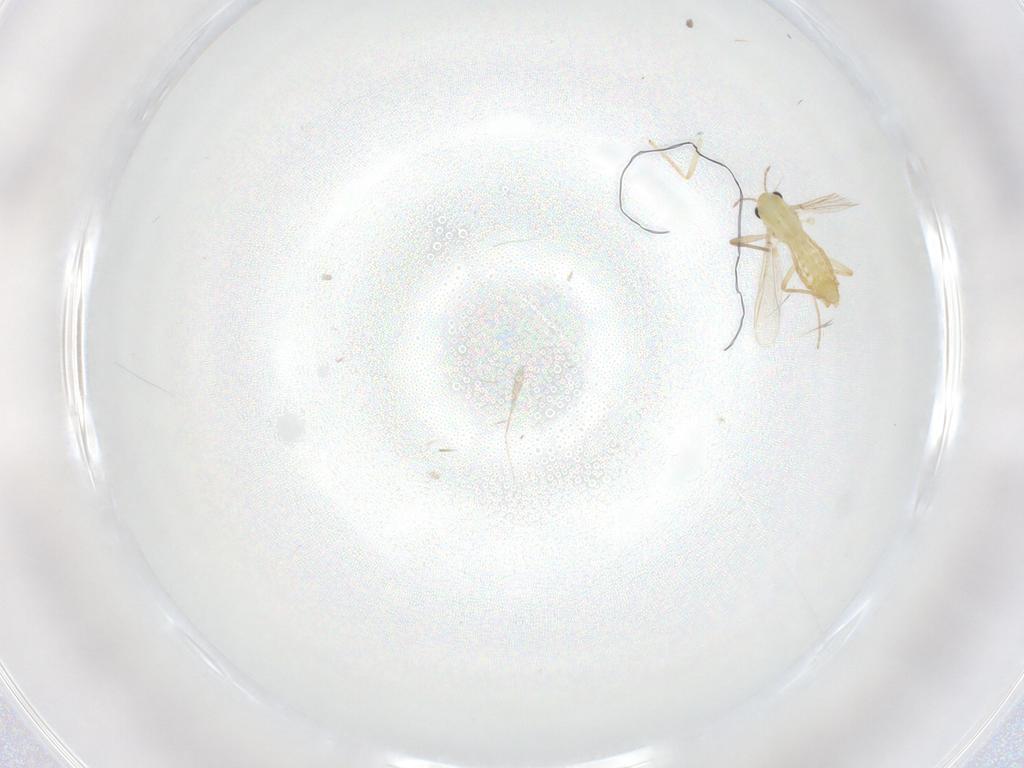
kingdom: Animalia
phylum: Arthropoda
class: Insecta
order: Diptera
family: Chironomidae
